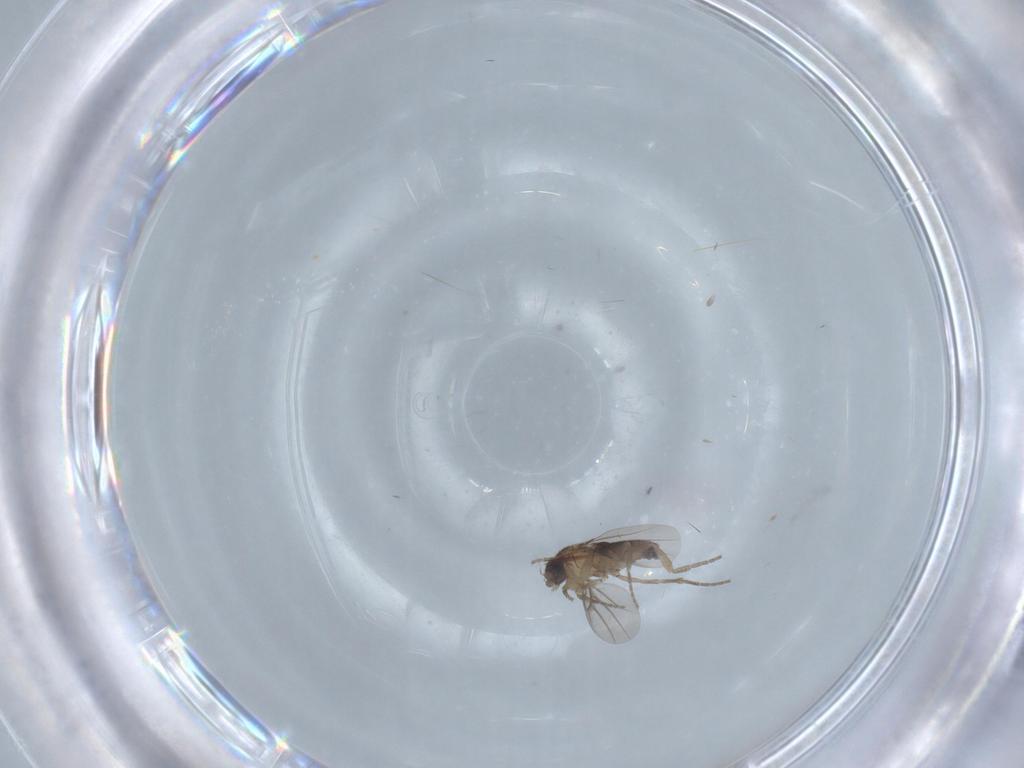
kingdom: Animalia
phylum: Arthropoda
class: Insecta
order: Diptera
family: Phoridae
